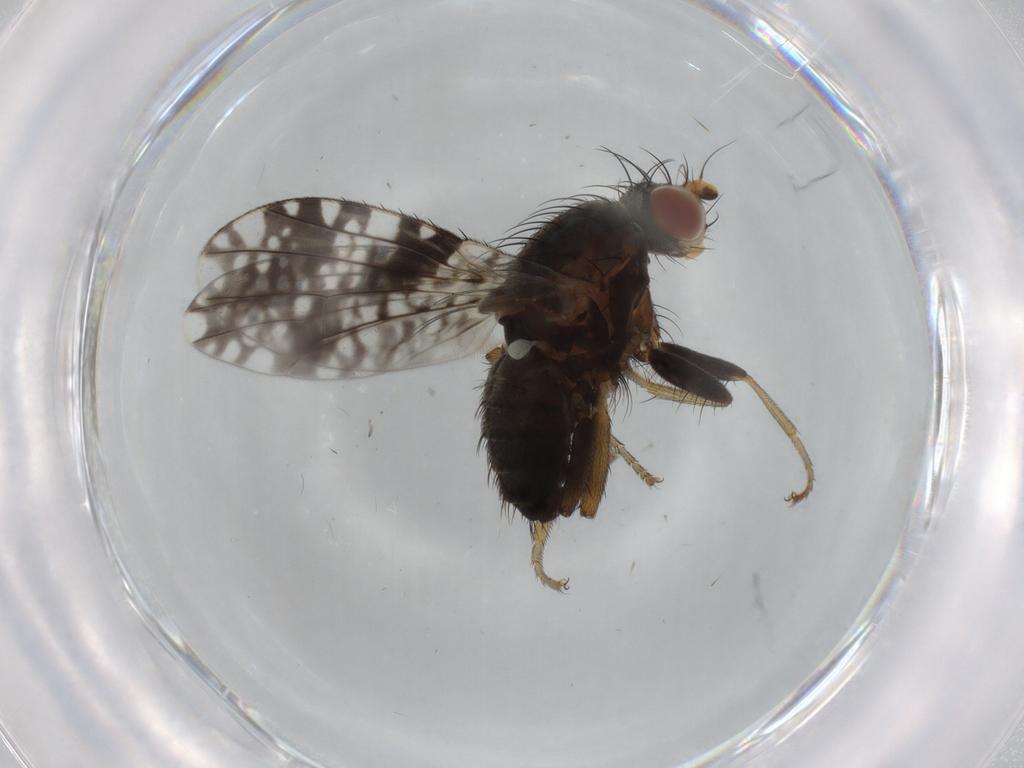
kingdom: Animalia
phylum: Arthropoda
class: Insecta
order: Diptera
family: Tephritidae
